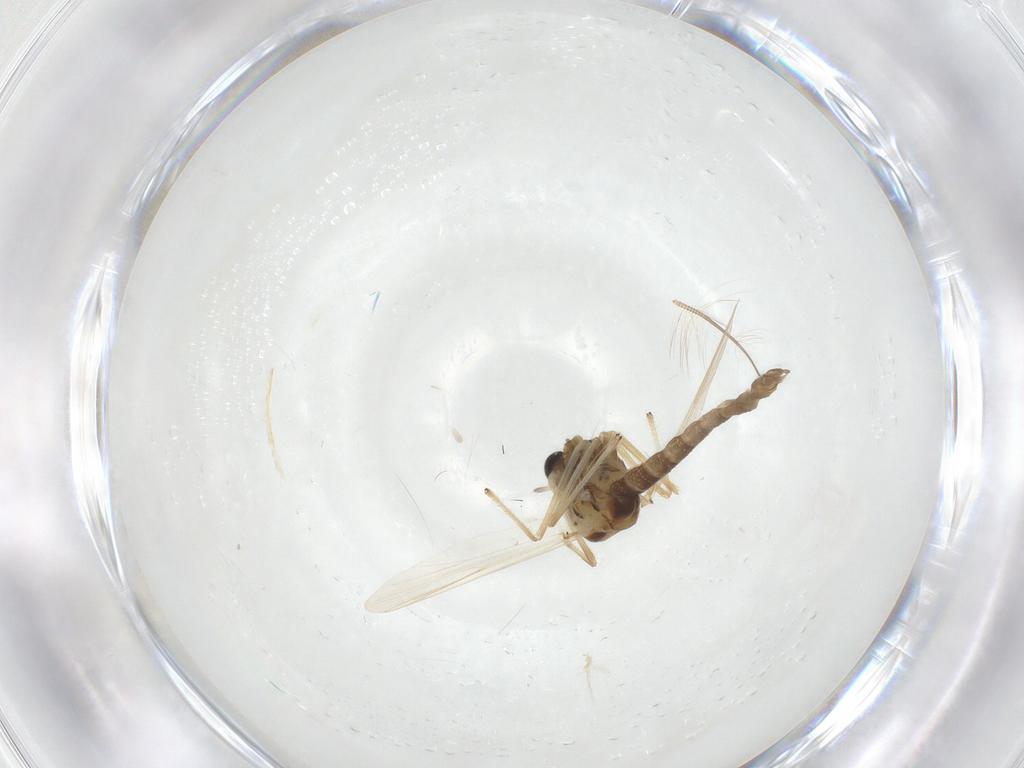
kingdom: Animalia
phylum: Arthropoda
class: Insecta
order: Diptera
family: Chironomidae
